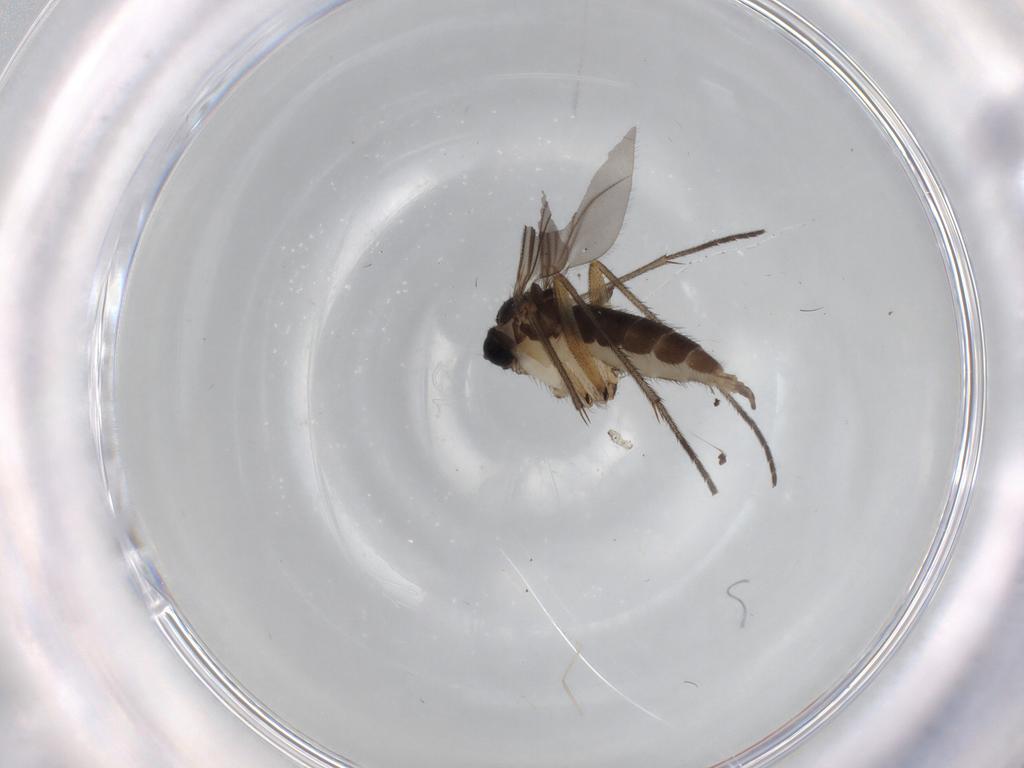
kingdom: Animalia
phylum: Arthropoda
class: Insecta
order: Diptera
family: Sciaridae
